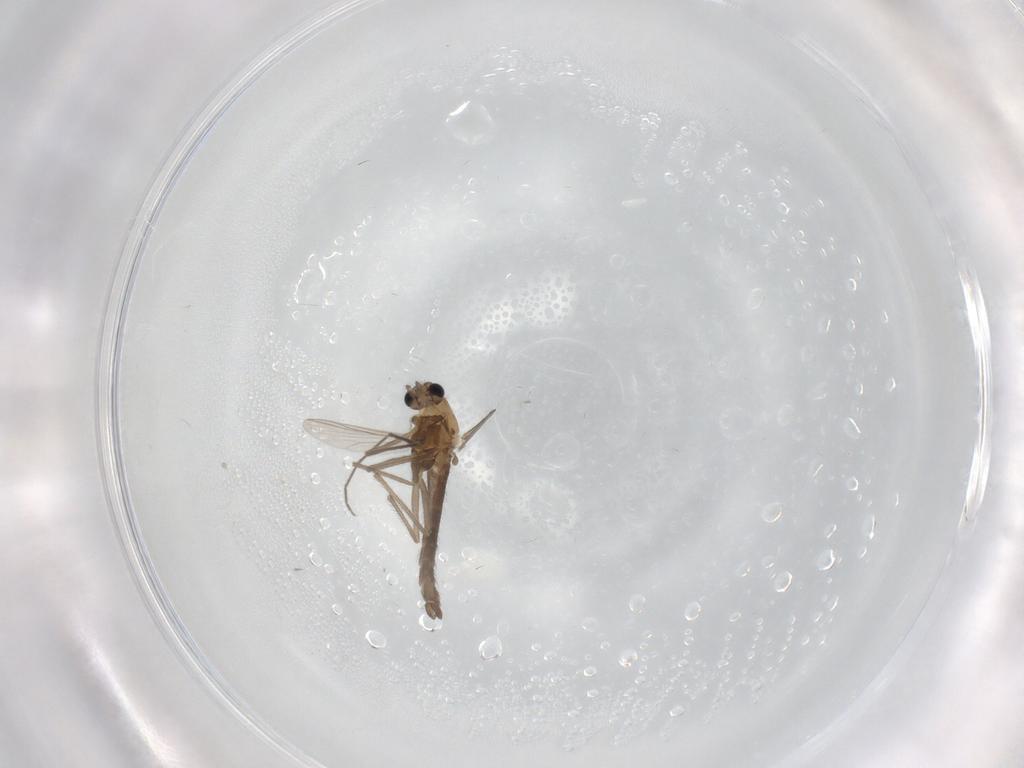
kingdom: Animalia
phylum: Arthropoda
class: Insecta
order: Diptera
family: Chironomidae
